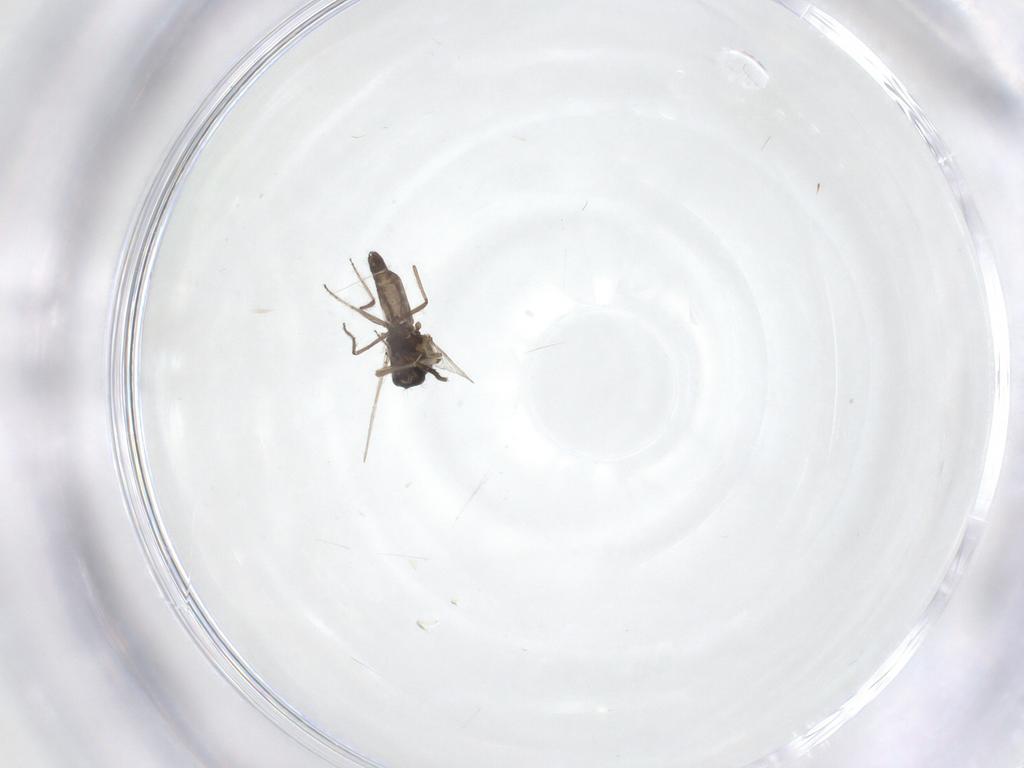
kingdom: Animalia
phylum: Arthropoda
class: Insecta
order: Diptera
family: Ceratopogonidae
